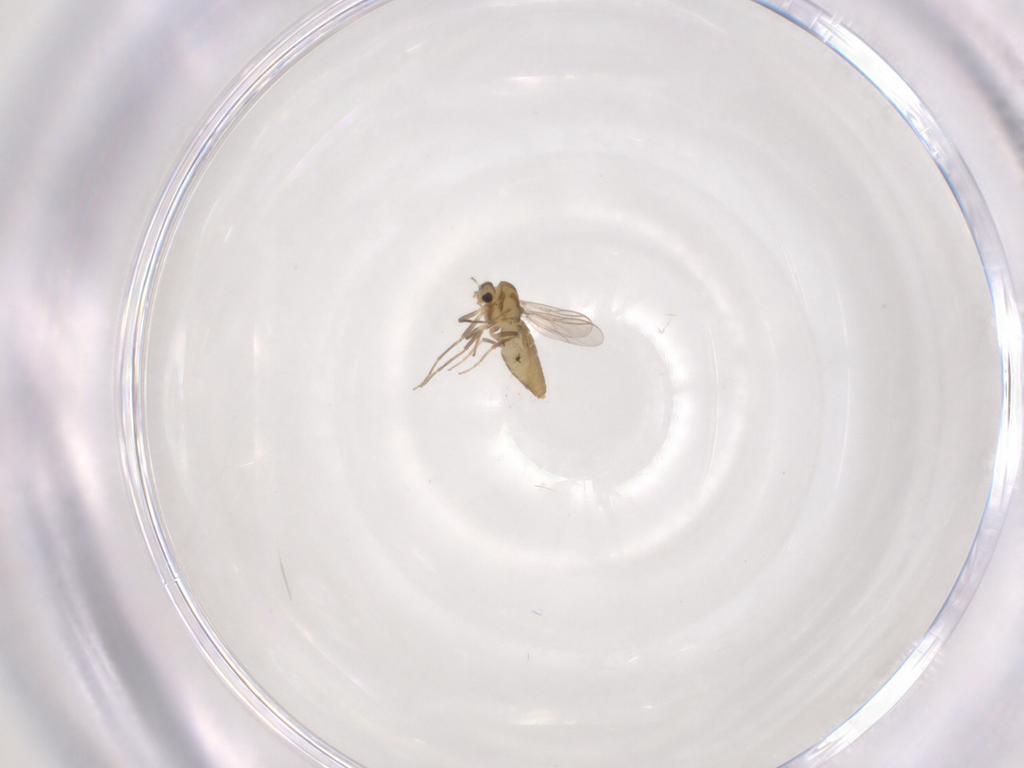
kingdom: Animalia
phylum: Arthropoda
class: Insecta
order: Diptera
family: Chironomidae
